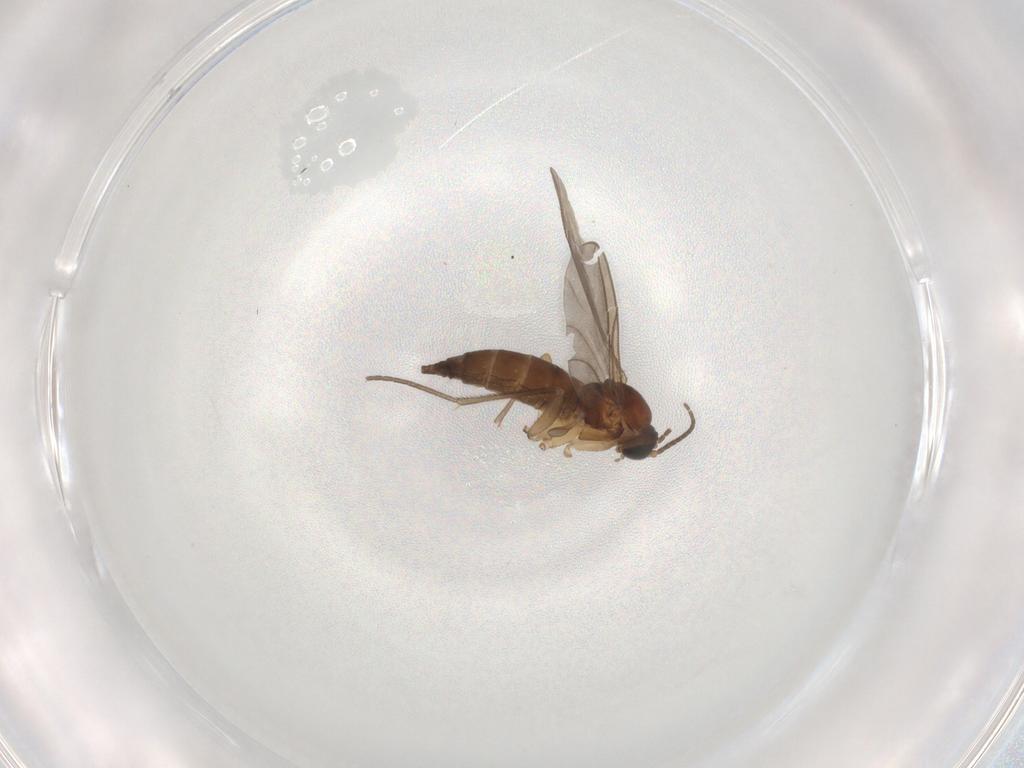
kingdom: Animalia
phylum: Arthropoda
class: Insecta
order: Diptera
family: Sciaridae
